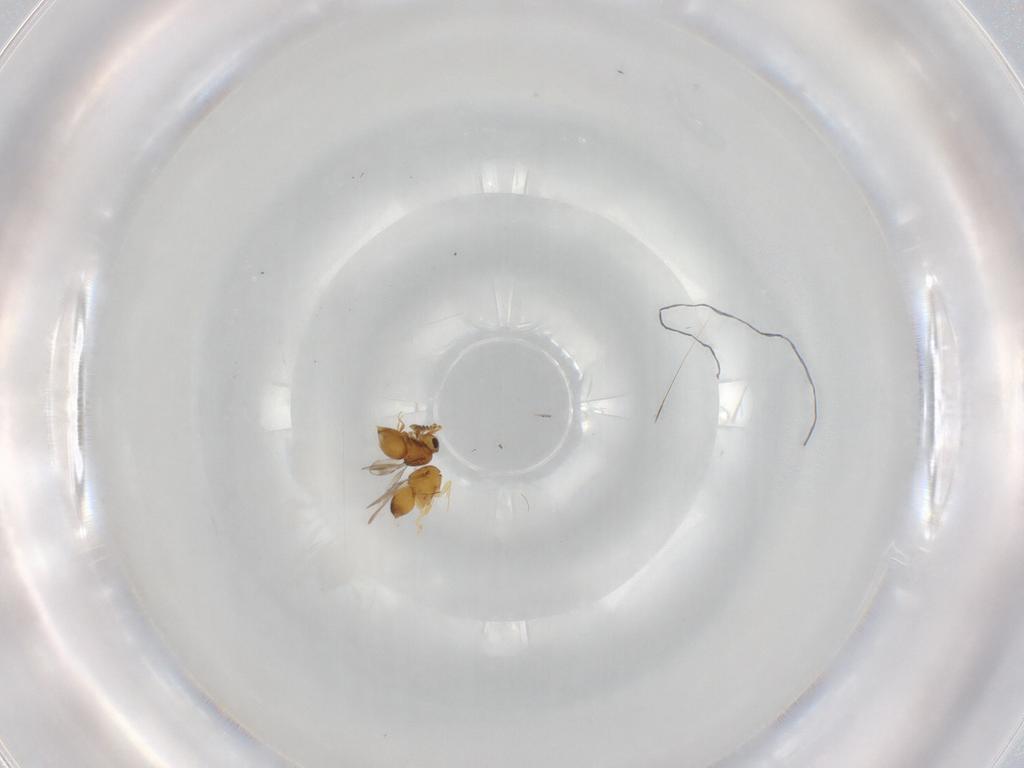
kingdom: Animalia
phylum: Arthropoda
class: Insecta
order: Hymenoptera
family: Ceraphronidae
